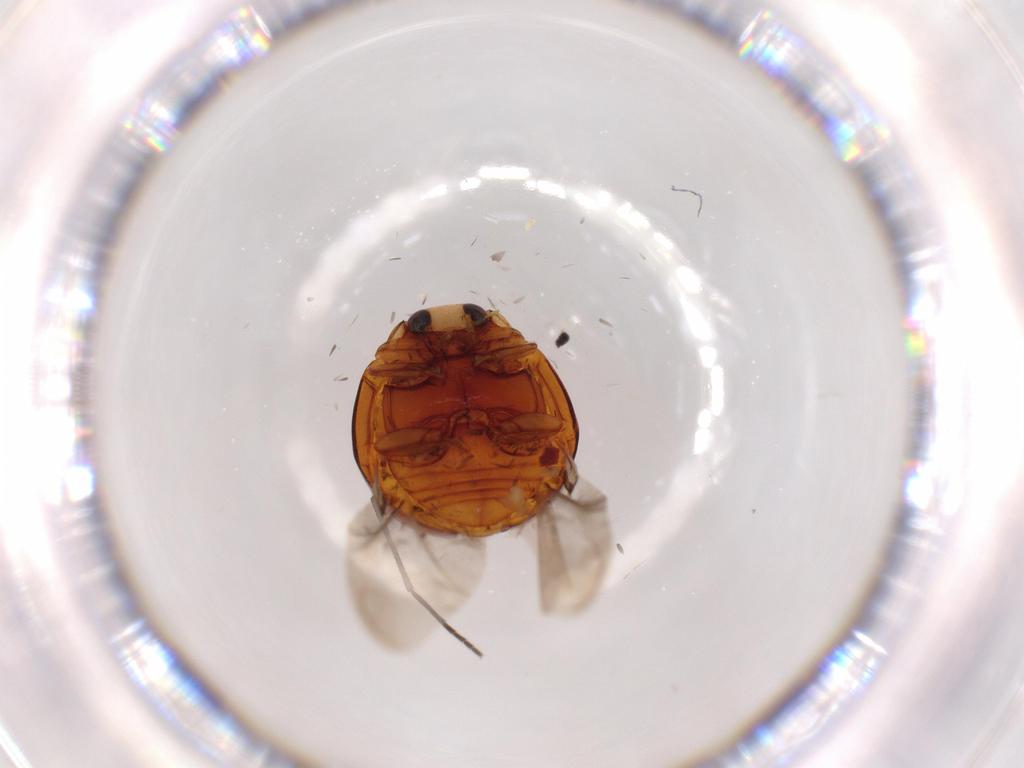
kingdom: Animalia
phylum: Arthropoda
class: Insecta
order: Coleoptera
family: Coccinellidae
